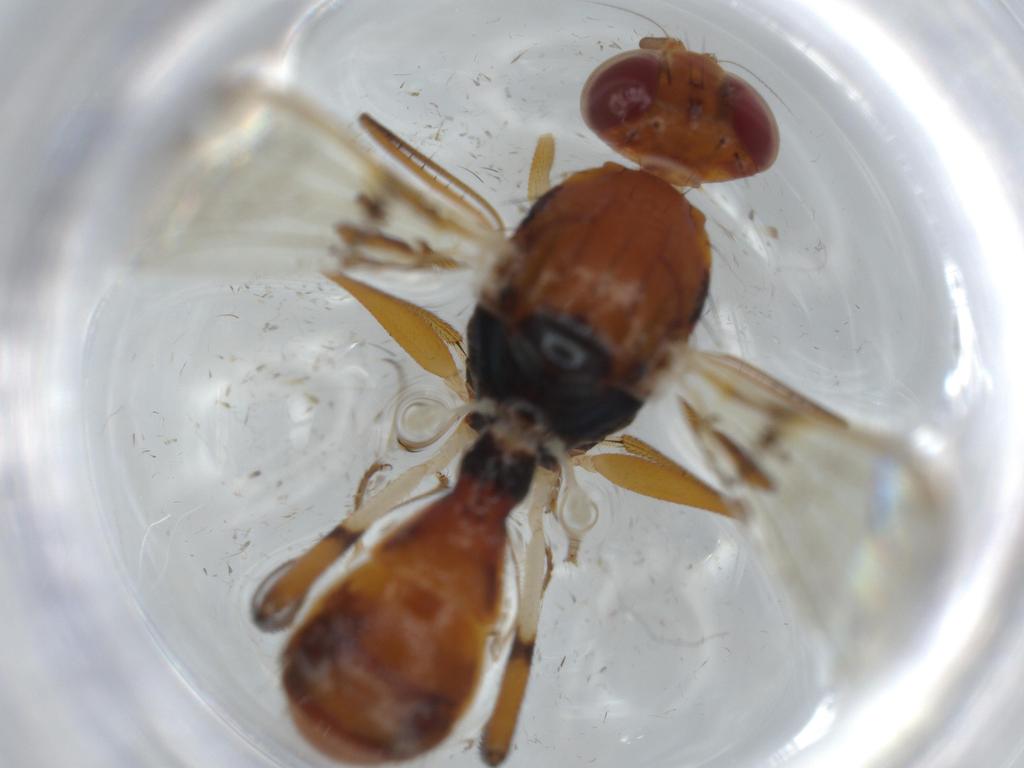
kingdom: Animalia
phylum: Arthropoda
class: Insecta
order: Diptera
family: Richardiidae
